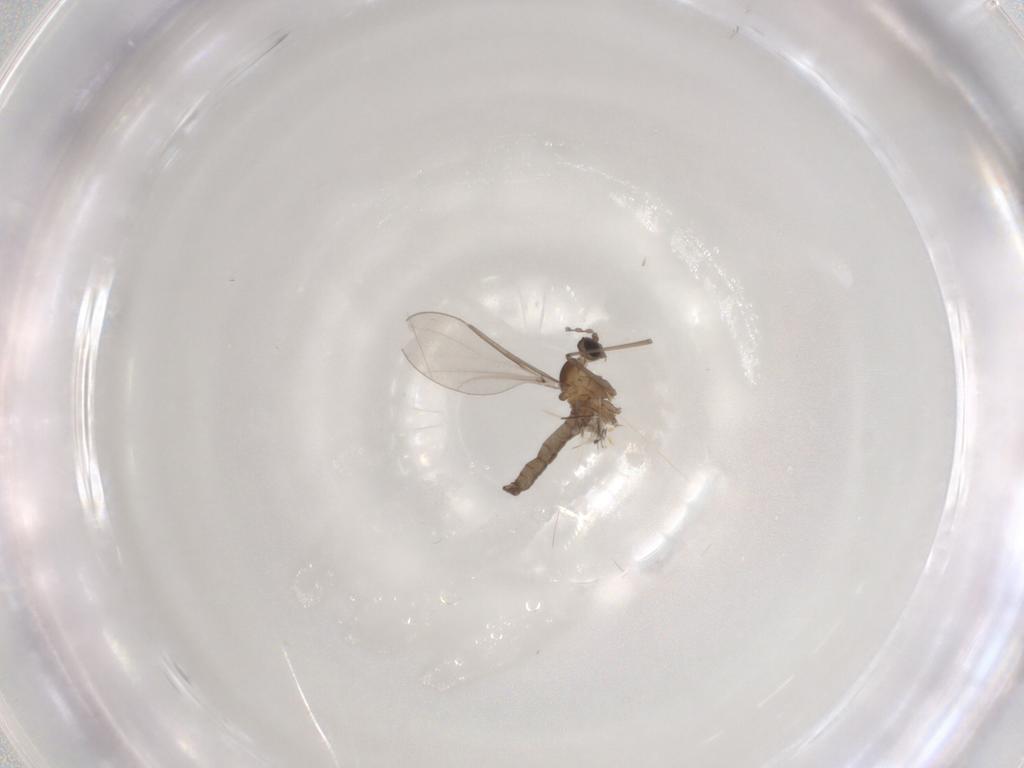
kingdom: Animalia
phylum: Arthropoda
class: Insecta
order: Diptera
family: Cecidomyiidae
